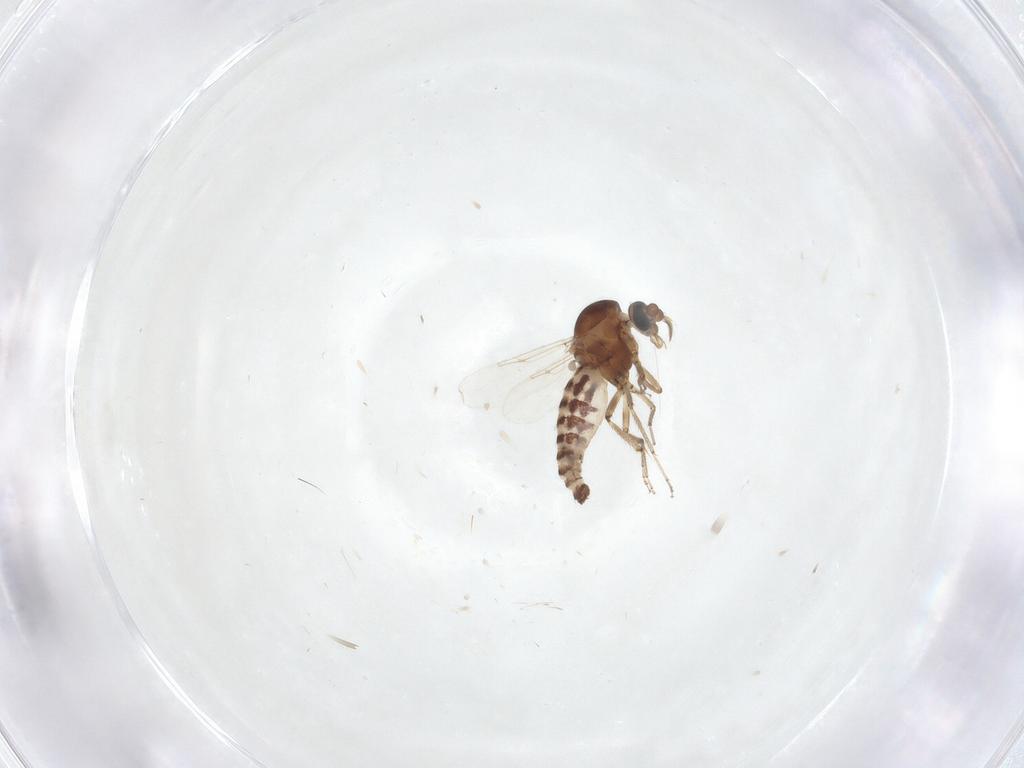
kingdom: Animalia
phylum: Arthropoda
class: Insecta
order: Diptera
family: Ceratopogonidae
